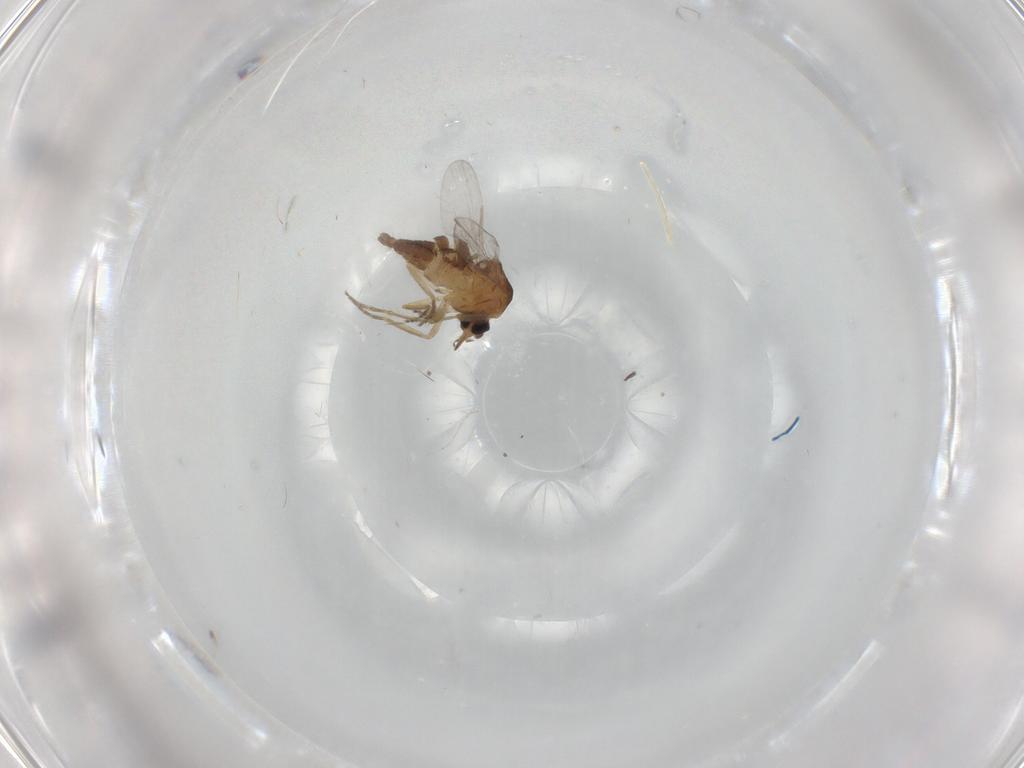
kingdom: Animalia
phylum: Arthropoda
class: Insecta
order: Diptera
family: Ceratopogonidae
